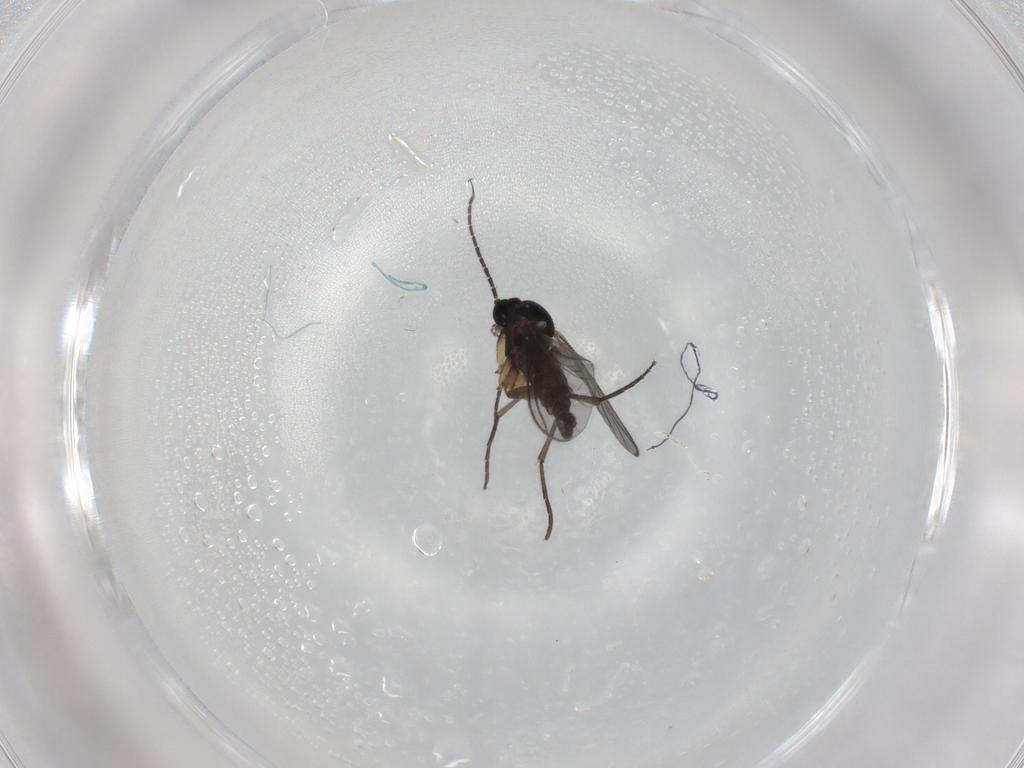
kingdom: Animalia
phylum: Arthropoda
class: Insecta
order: Diptera
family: Sciaridae
